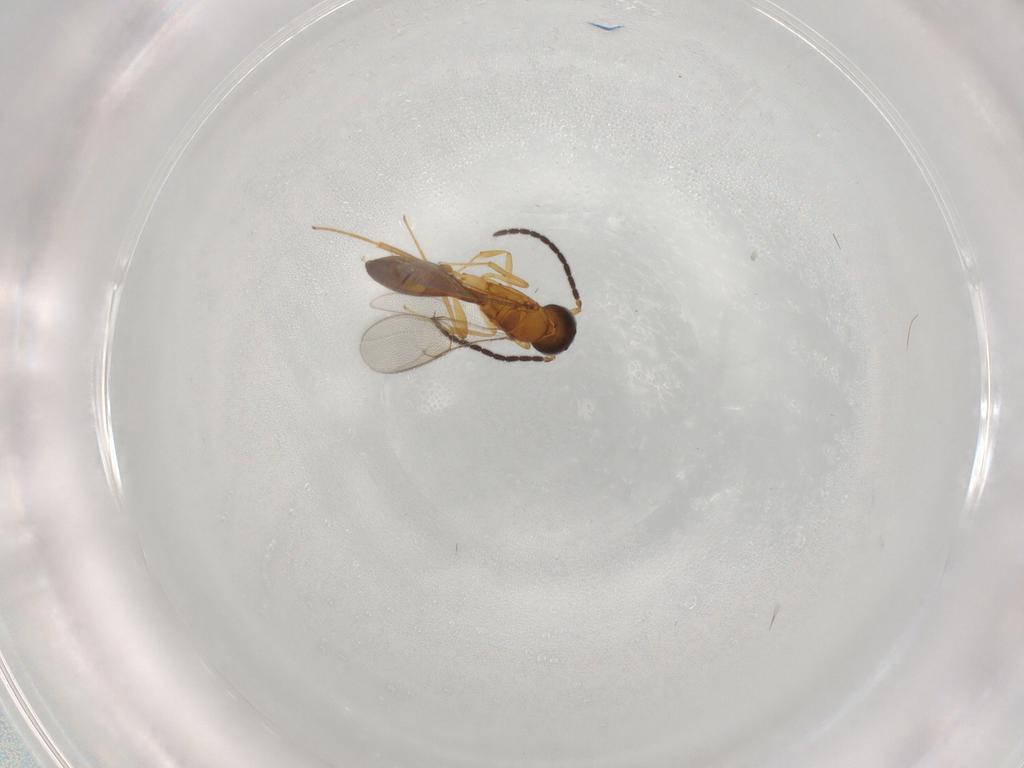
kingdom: Animalia
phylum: Arthropoda
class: Insecta
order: Hymenoptera
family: Scelionidae
